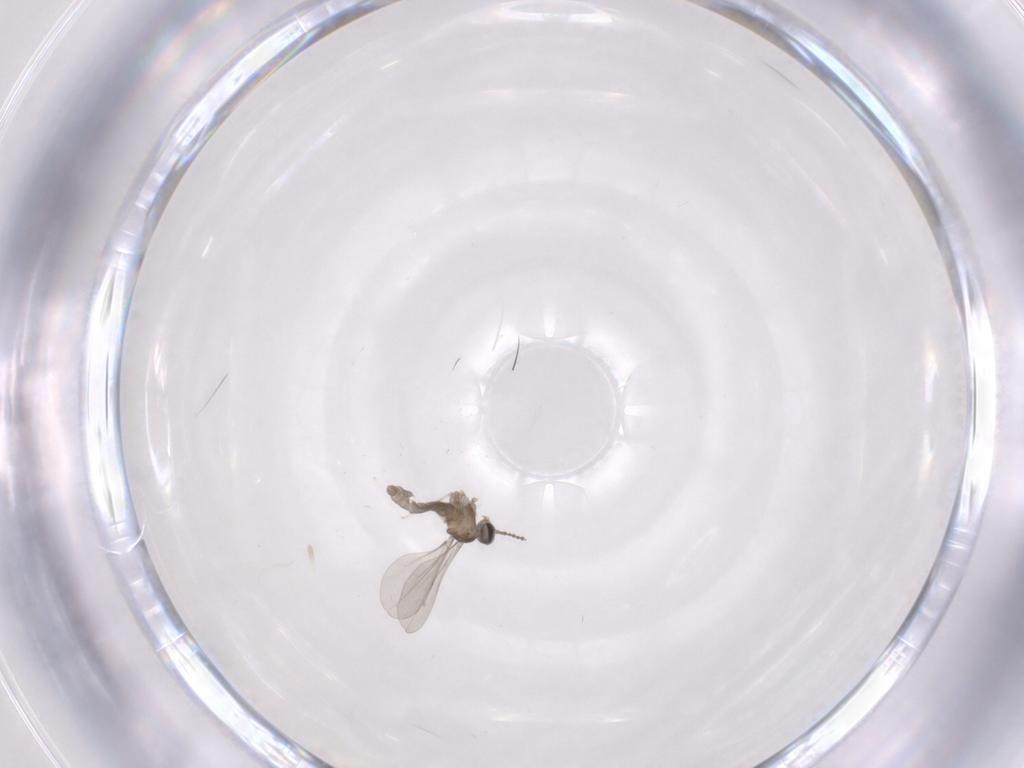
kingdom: Animalia
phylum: Arthropoda
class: Insecta
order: Diptera
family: Cecidomyiidae
